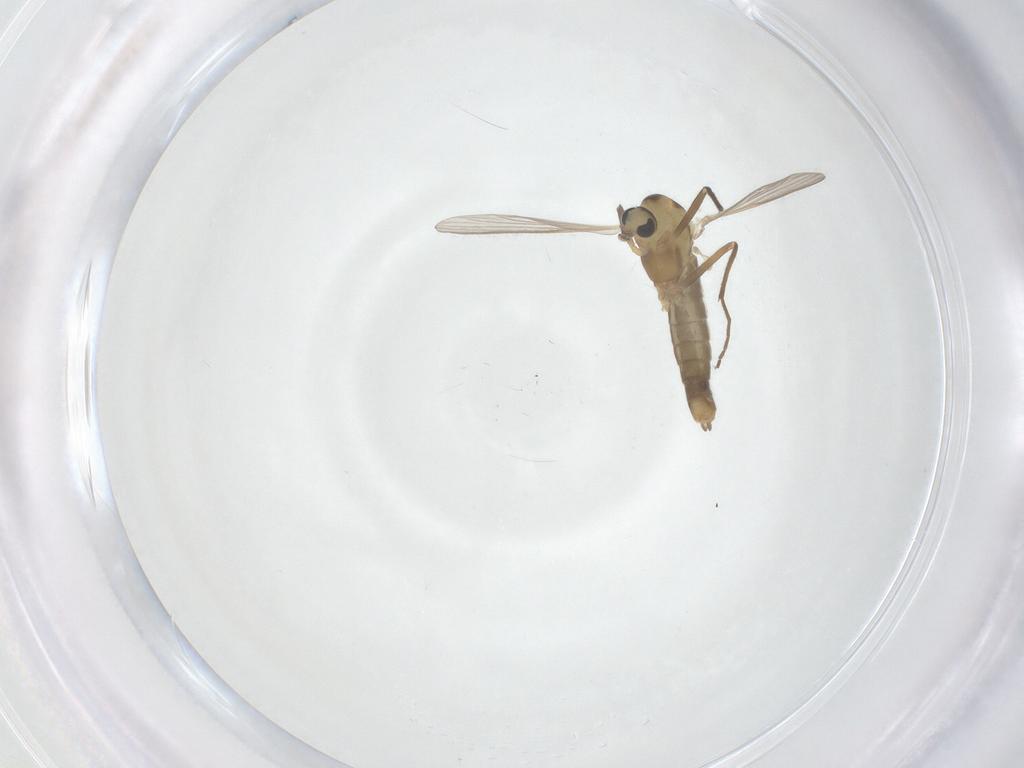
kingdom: Animalia
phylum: Arthropoda
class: Insecta
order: Diptera
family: Chironomidae
